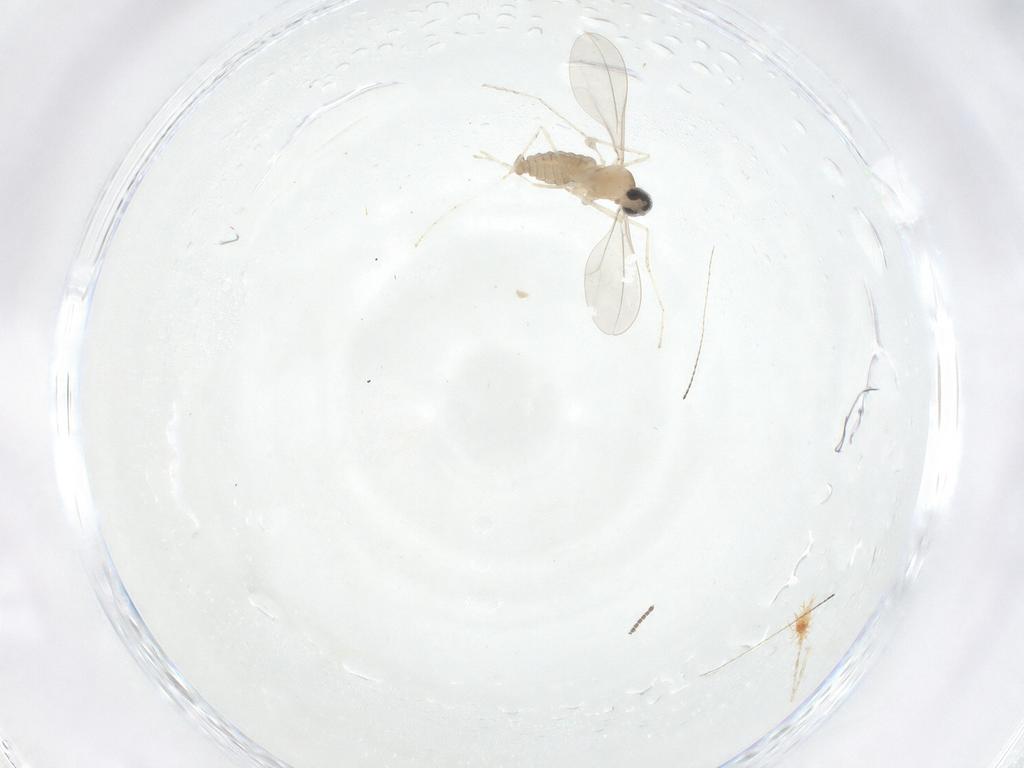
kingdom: Animalia
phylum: Arthropoda
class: Insecta
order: Diptera
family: Cecidomyiidae
